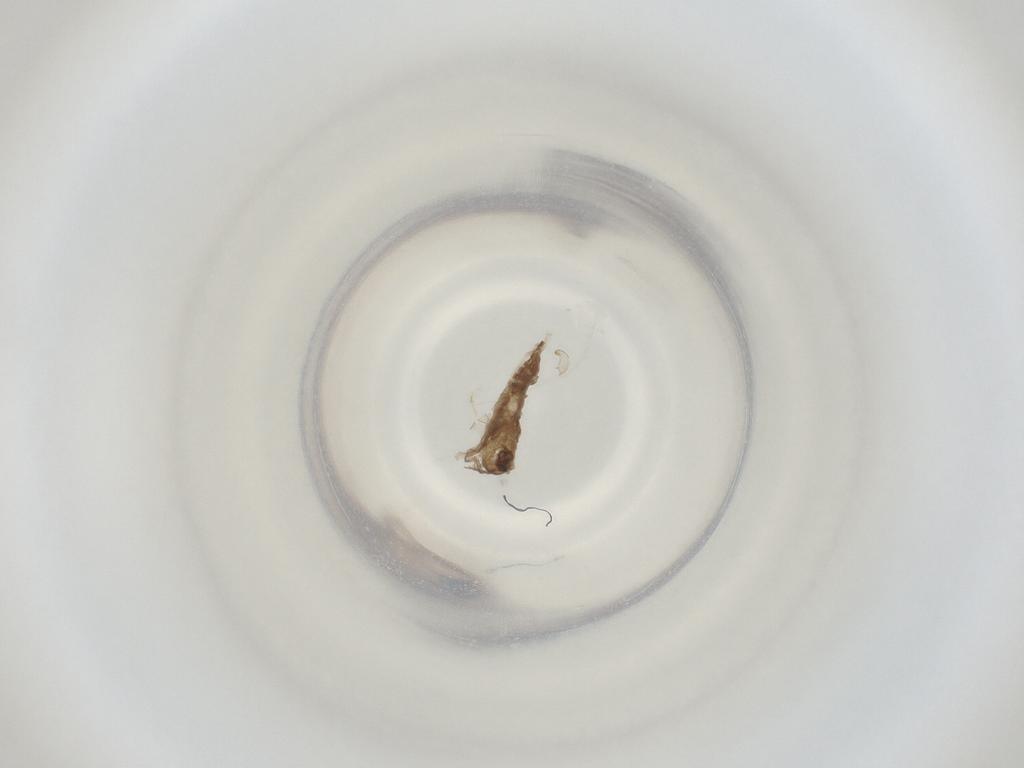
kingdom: Animalia
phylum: Arthropoda
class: Insecta
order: Diptera
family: Cecidomyiidae
